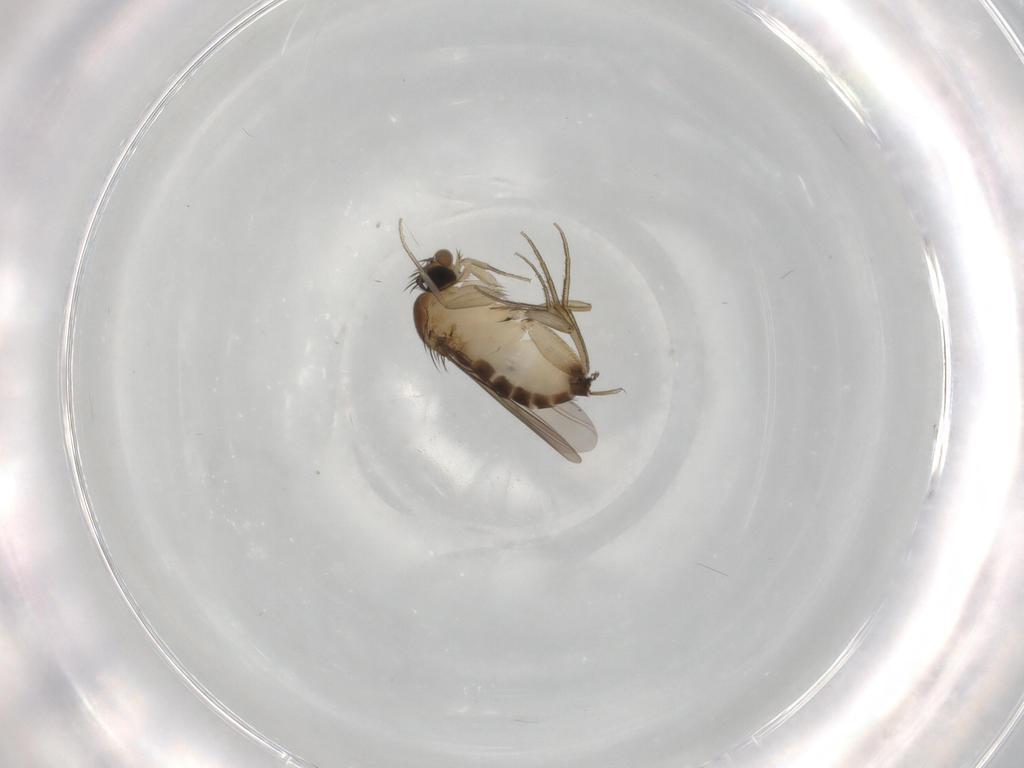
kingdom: Animalia
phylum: Arthropoda
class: Insecta
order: Diptera
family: Phoridae
